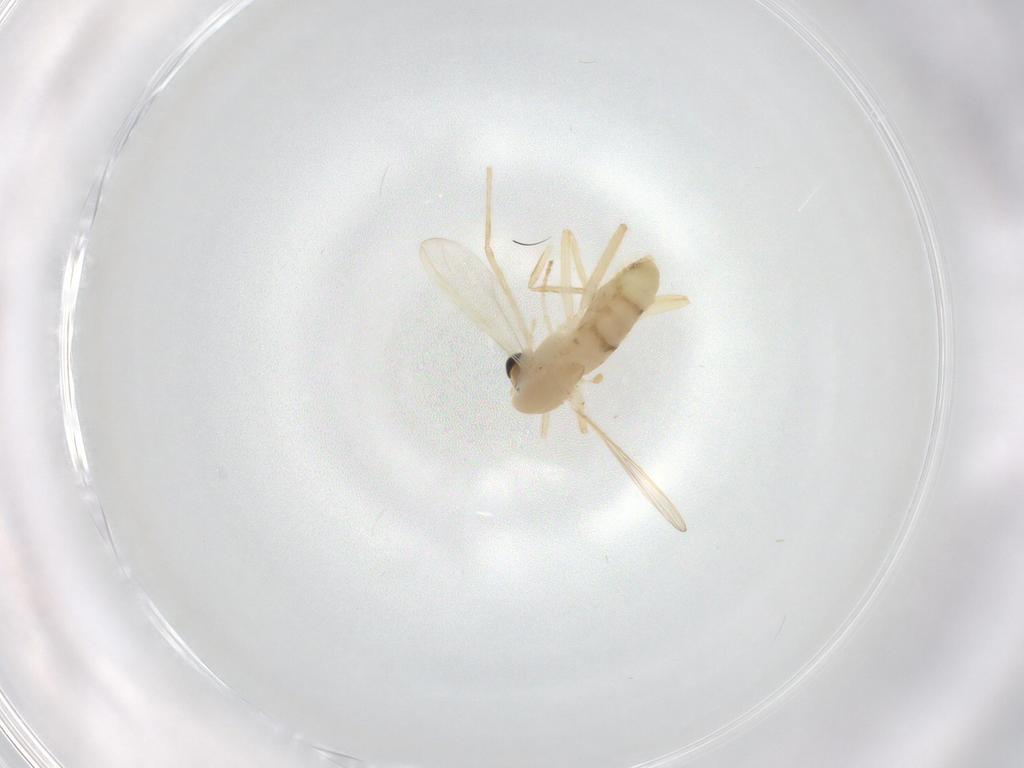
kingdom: Animalia
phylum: Arthropoda
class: Insecta
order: Diptera
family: Chironomidae
